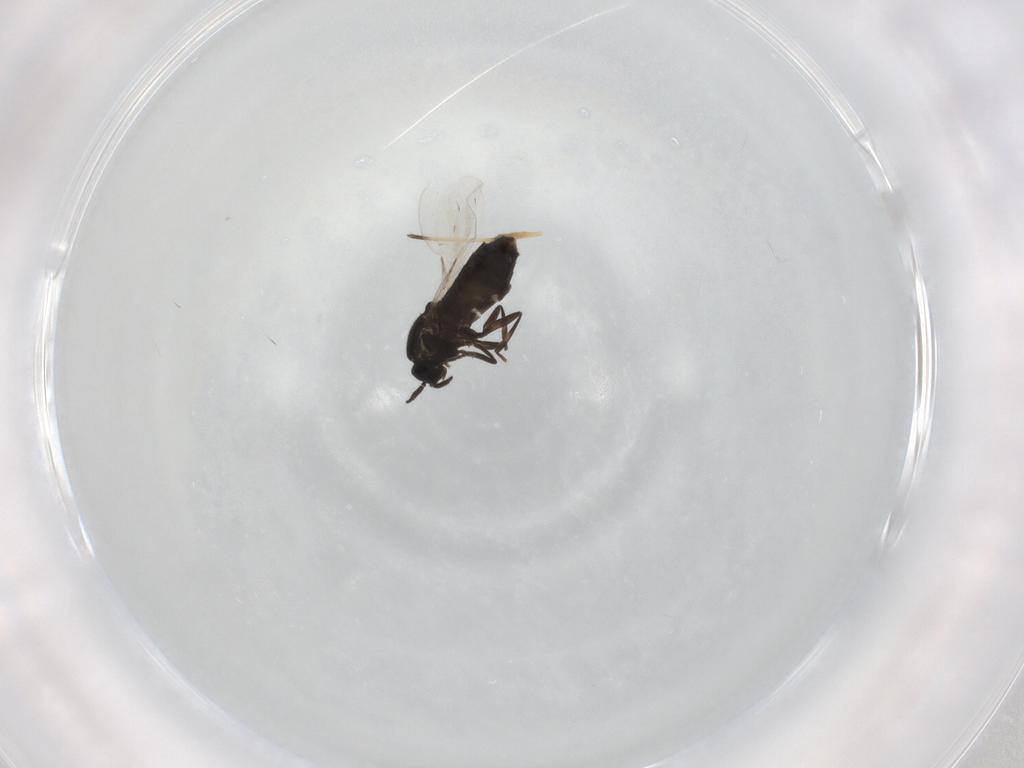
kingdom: Animalia
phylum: Arthropoda
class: Insecta
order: Diptera
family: Scatopsidae
